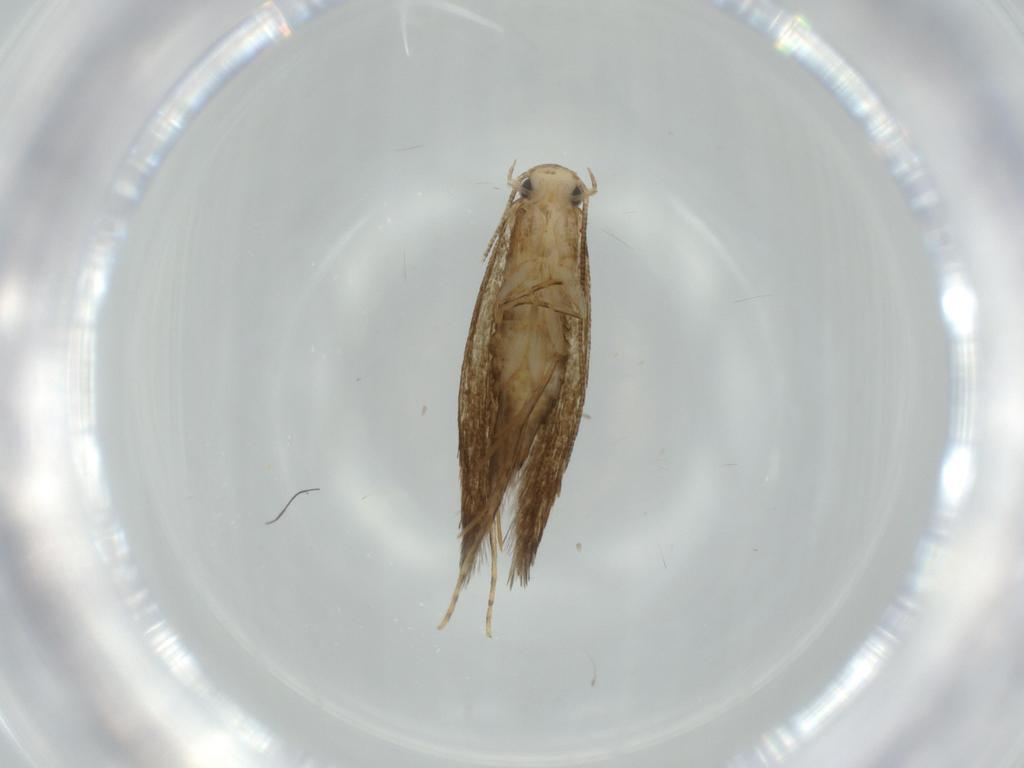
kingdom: Animalia
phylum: Arthropoda
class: Insecta
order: Lepidoptera
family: Tineidae
